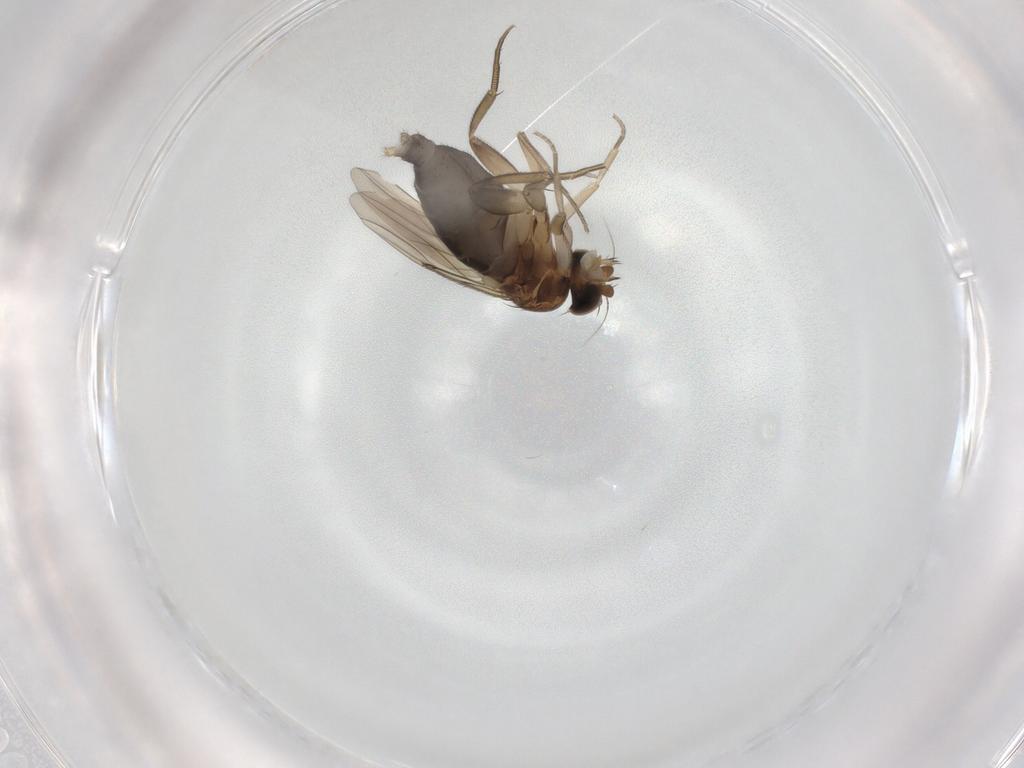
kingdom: Animalia
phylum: Arthropoda
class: Insecta
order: Diptera
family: Phoridae
